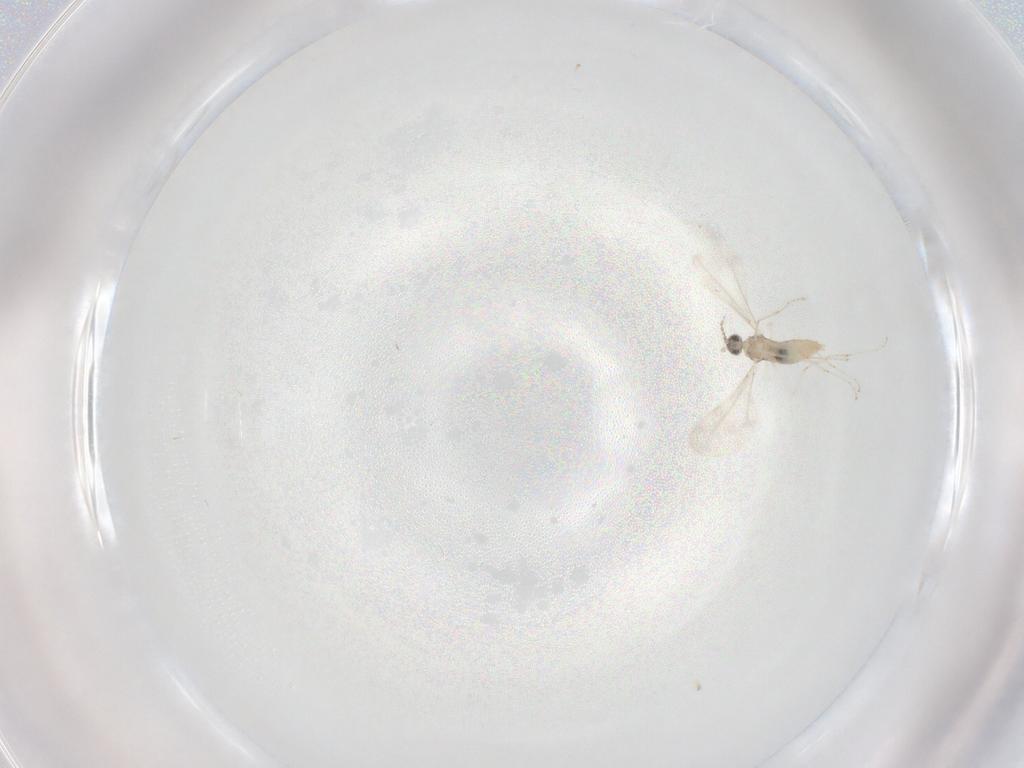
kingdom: Animalia
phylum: Arthropoda
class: Insecta
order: Diptera
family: Cecidomyiidae
